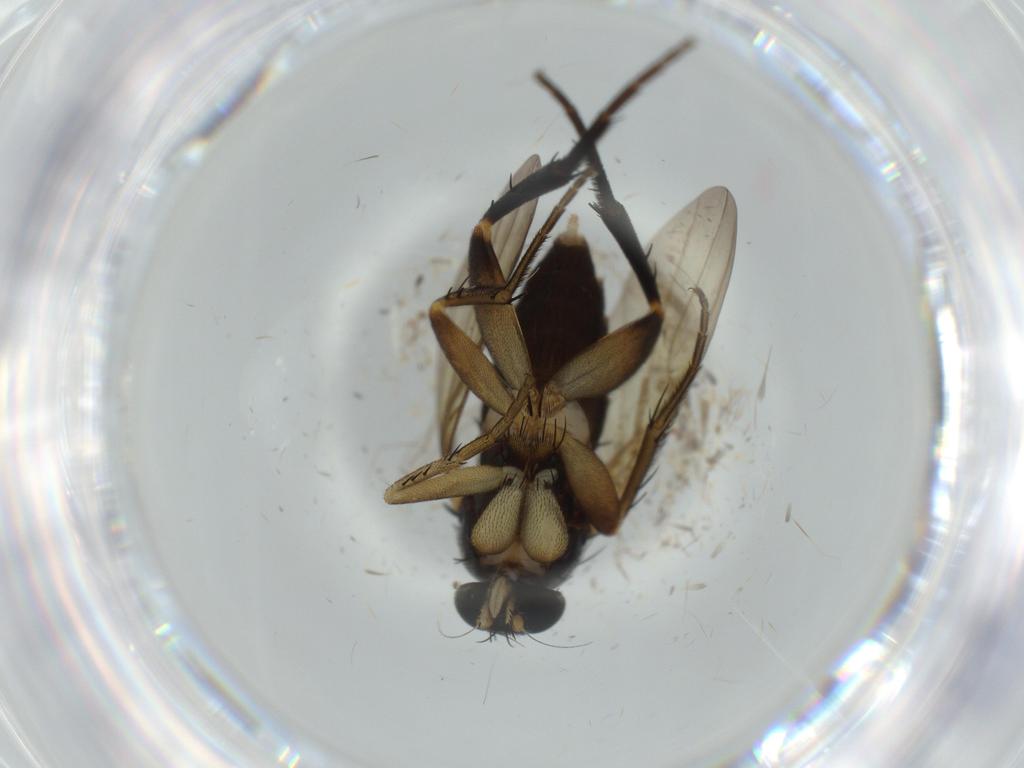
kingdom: Animalia
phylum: Arthropoda
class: Insecta
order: Diptera
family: Phoridae
